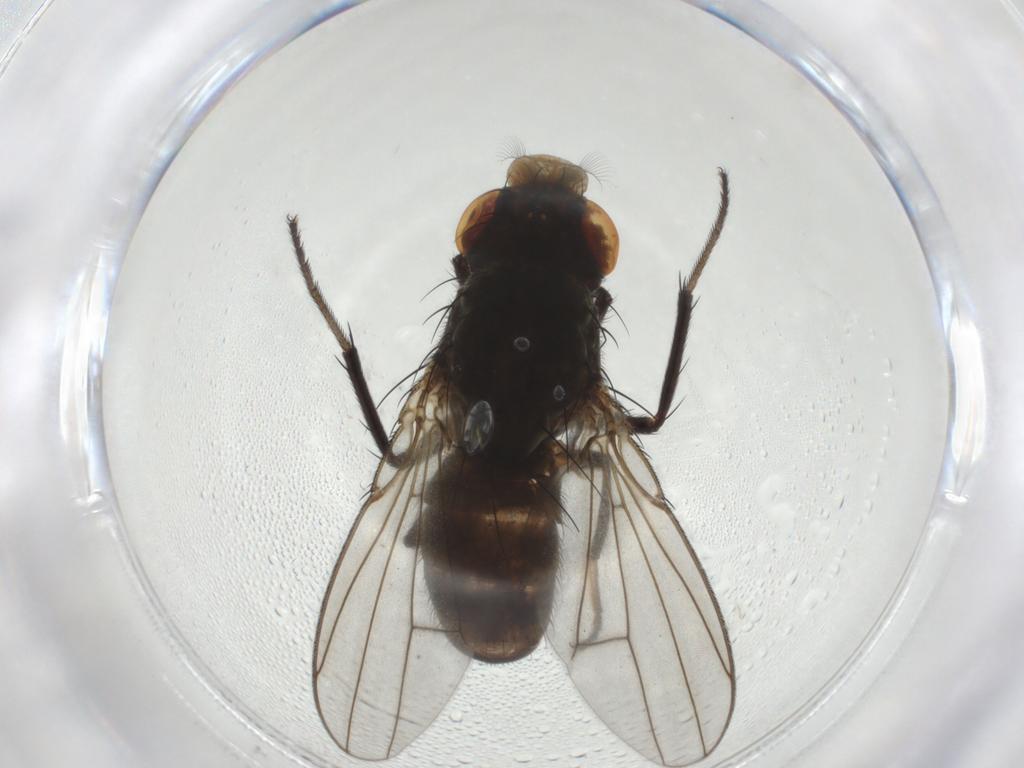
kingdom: Animalia
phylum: Arthropoda
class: Insecta
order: Diptera
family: Dolichopodidae
